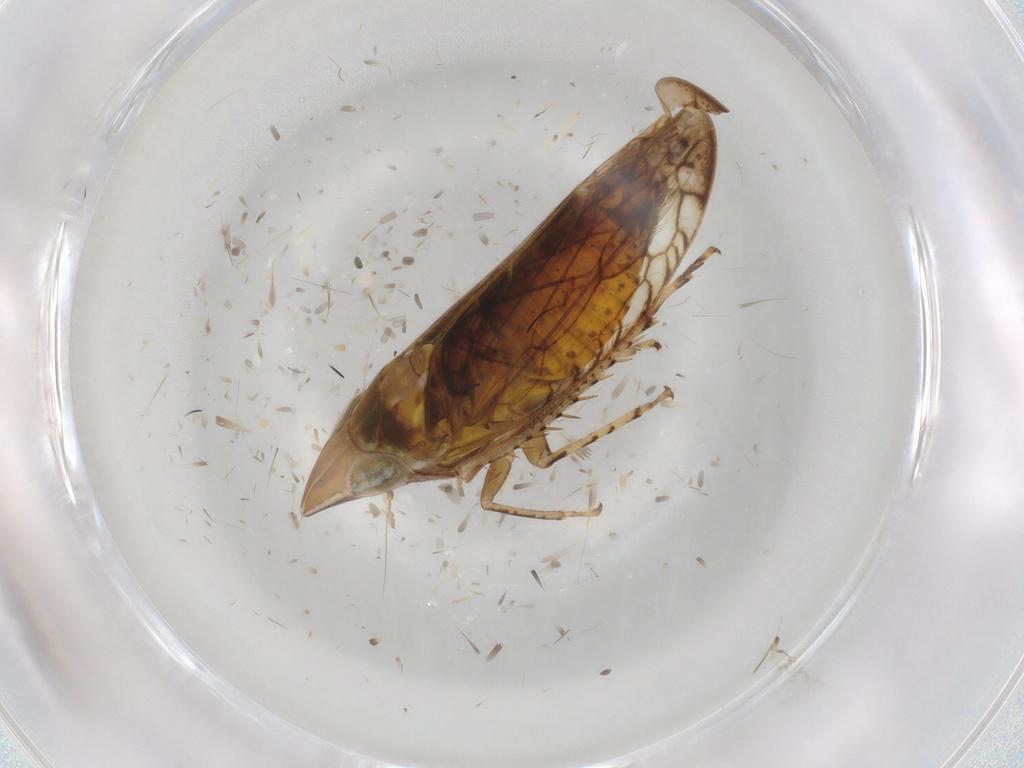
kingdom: Animalia
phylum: Arthropoda
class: Insecta
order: Hemiptera
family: Cicadellidae
